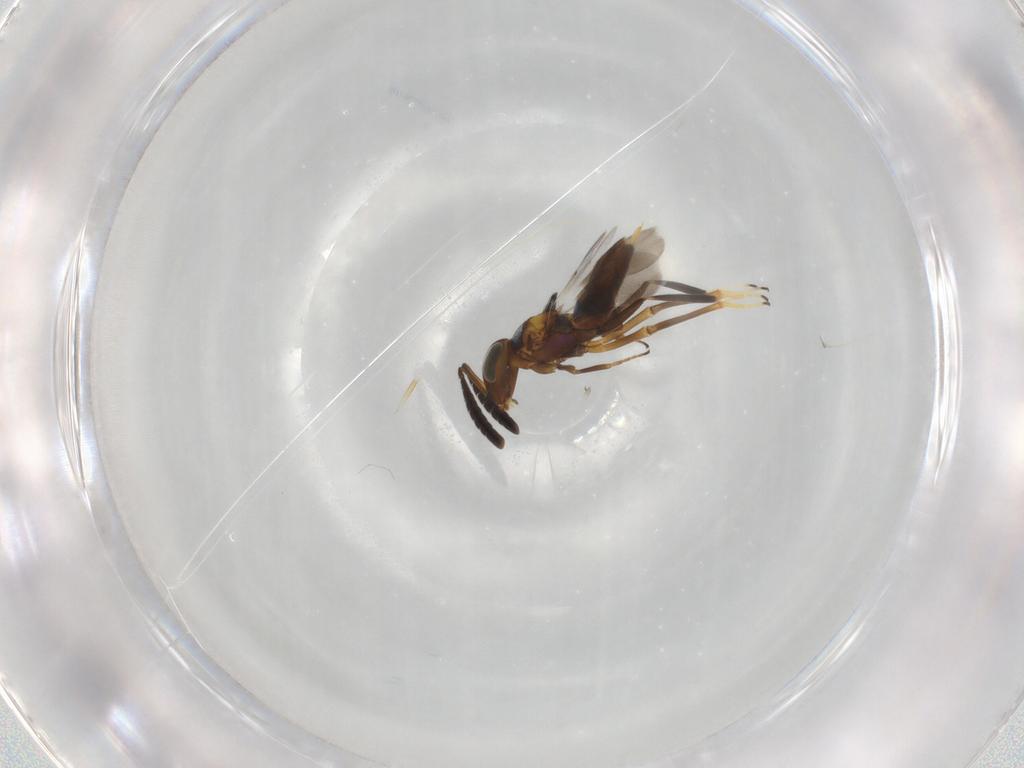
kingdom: Animalia
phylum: Arthropoda
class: Insecta
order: Hymenoptera
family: Encyrtidae
